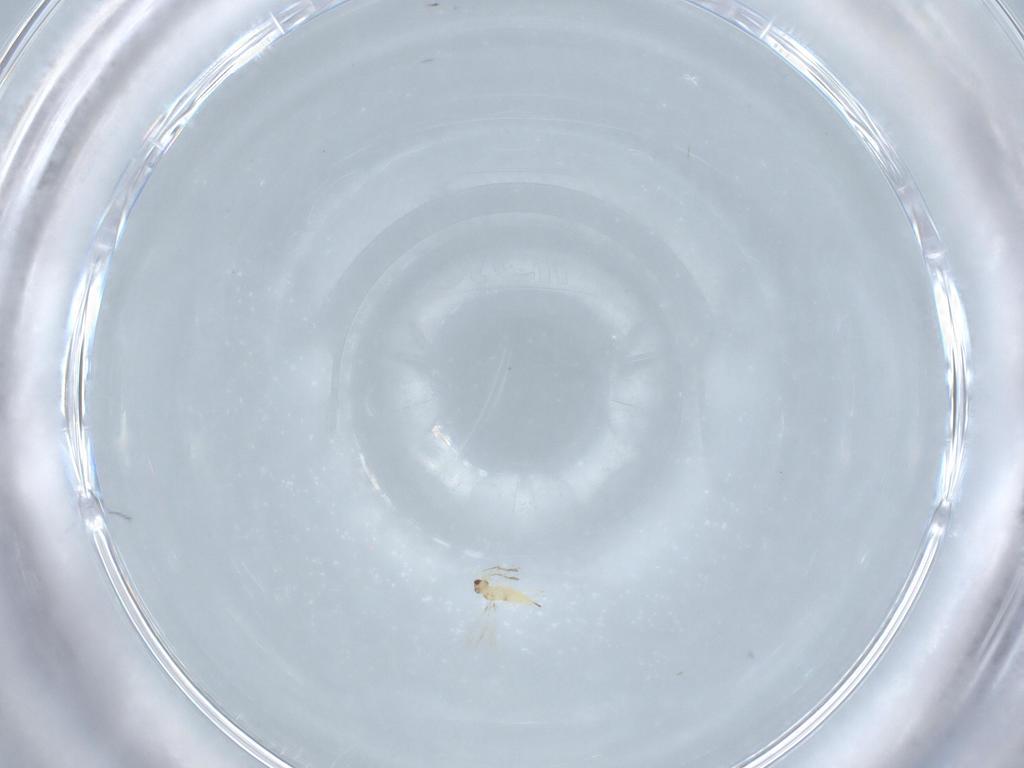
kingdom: Animalia
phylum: Arthropoda
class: Insecta
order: Hymenoptera
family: Mymaridae
